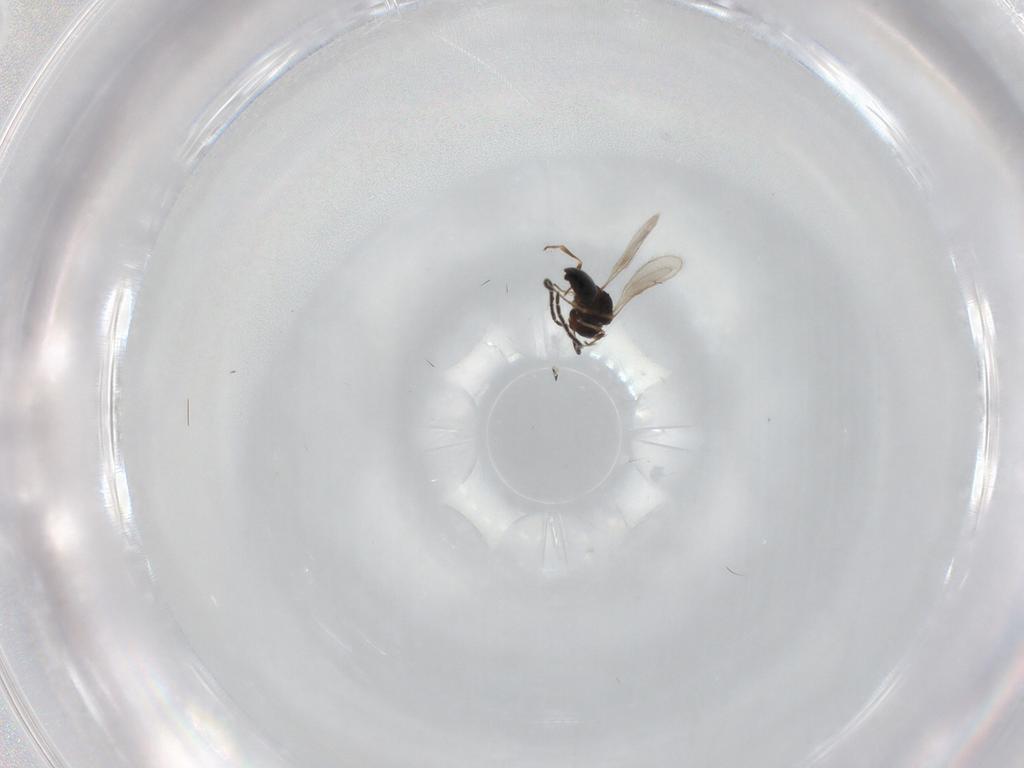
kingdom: Animalia
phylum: Arthropoda
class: Insecta
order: Hymenoptera
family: Scelionidae
